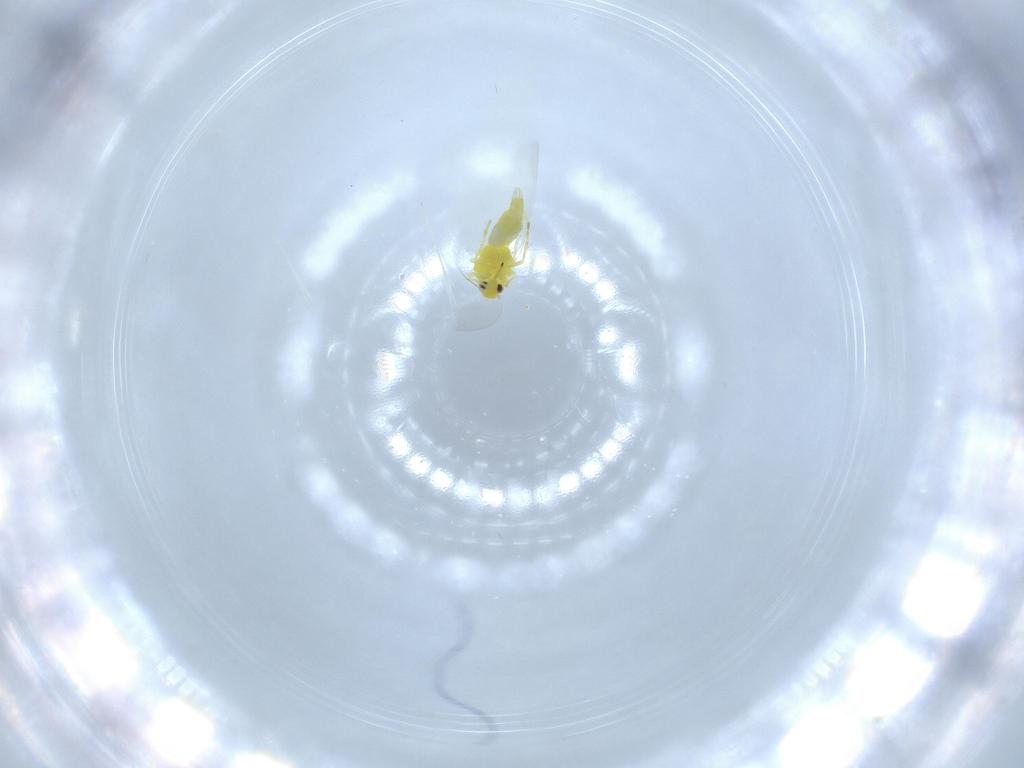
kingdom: Animalia
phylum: Arthropoda
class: Insecta
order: Hemiptera
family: Aleyrodidae
